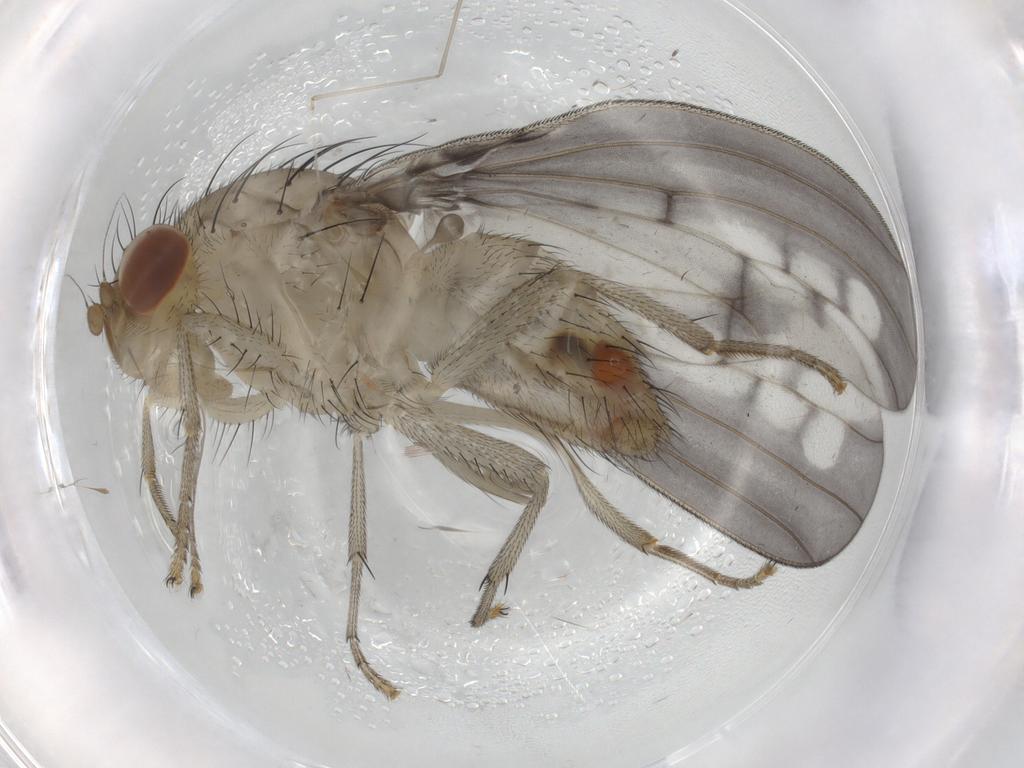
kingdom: Animalia
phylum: Arthropoda
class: Insecta
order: Diptera
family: Cecidomyiidae
